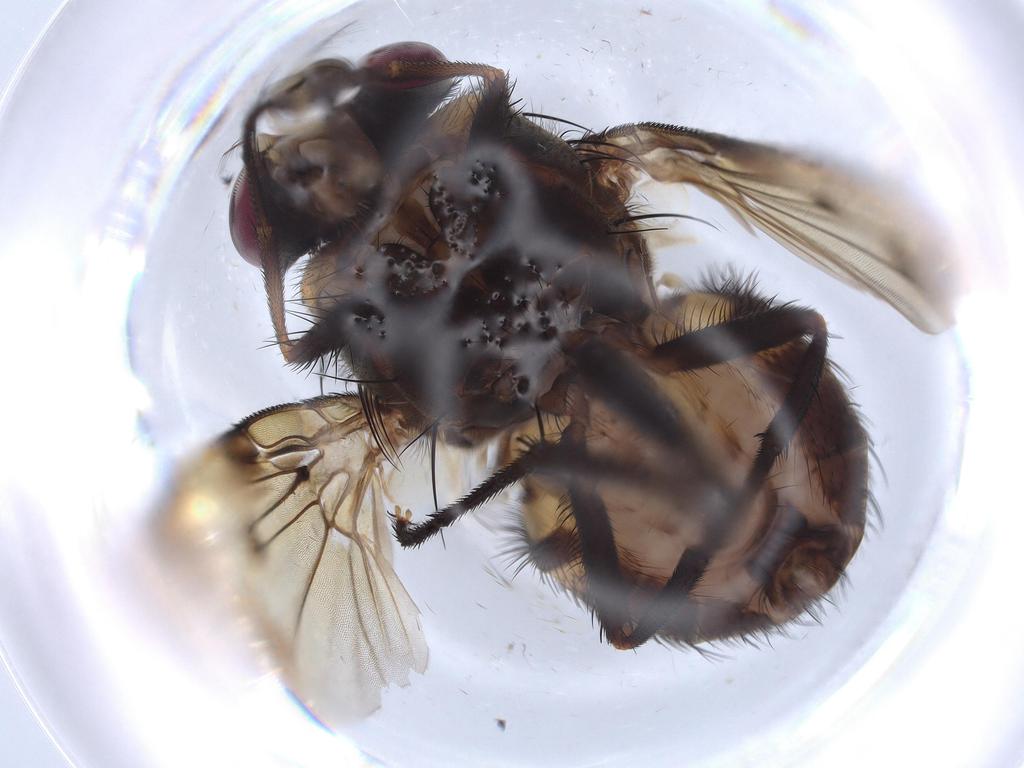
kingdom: Animalia
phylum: Arthropoda
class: Insecta
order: Diptera
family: Muscidae
